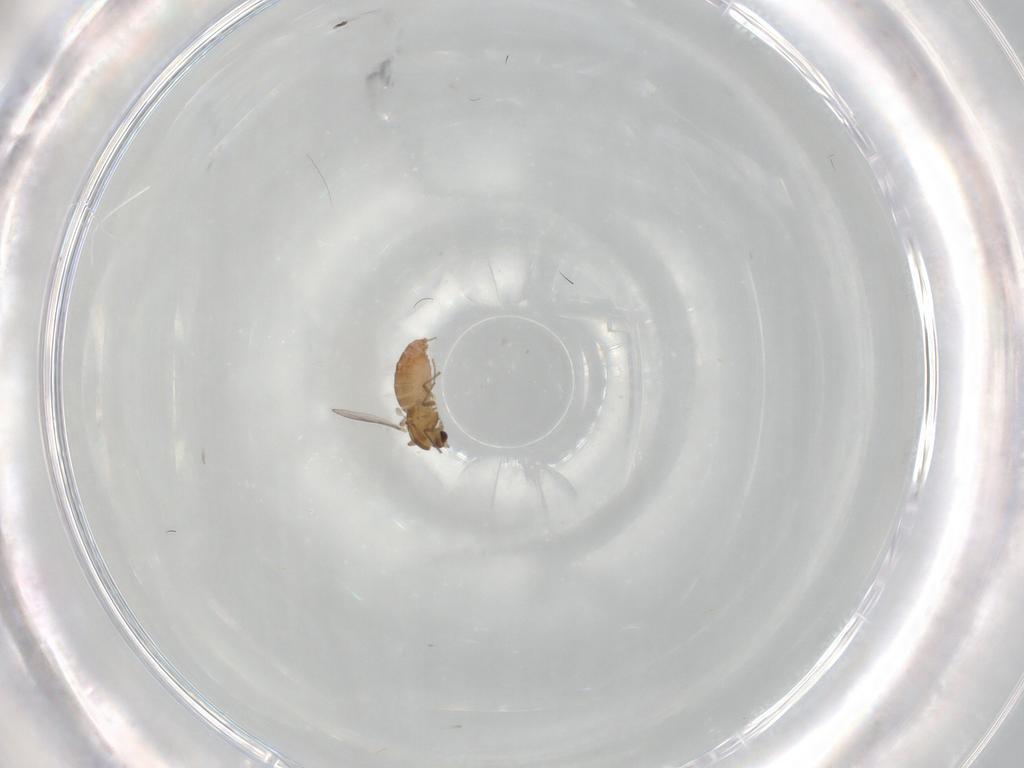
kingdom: Animalia
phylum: Arthropoda
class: Insecta
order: Diptera
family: Chironomidae
